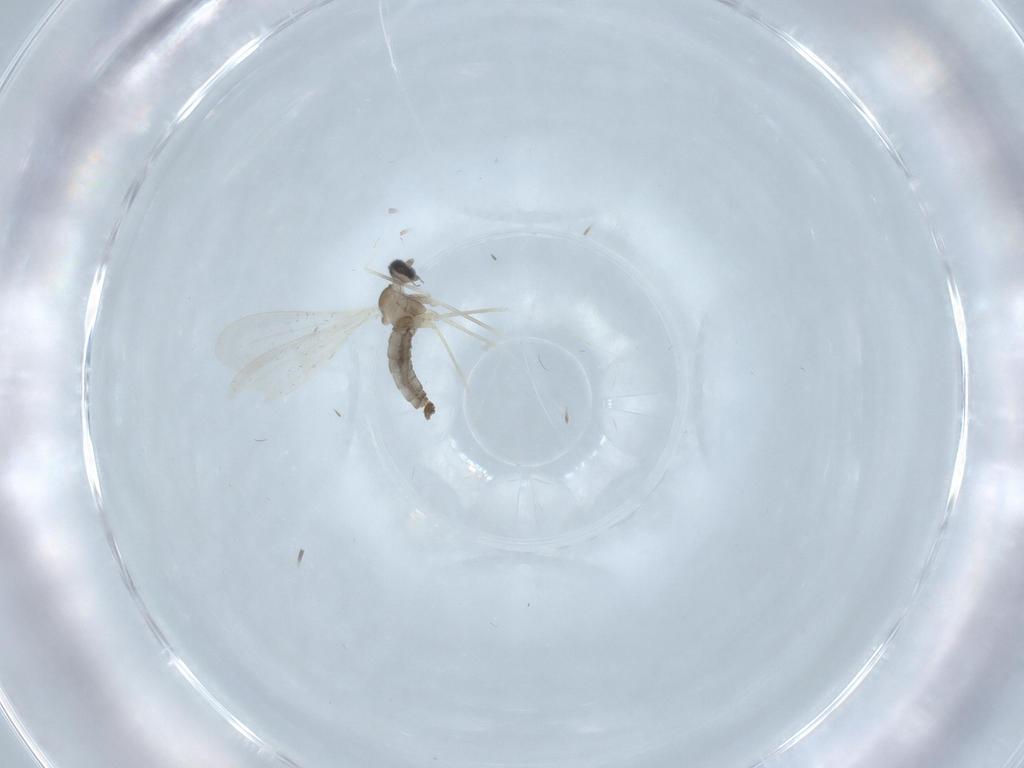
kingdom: Animalia
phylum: Arthropoda
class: Insecta
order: Diptera
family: Cecidomyiidae
